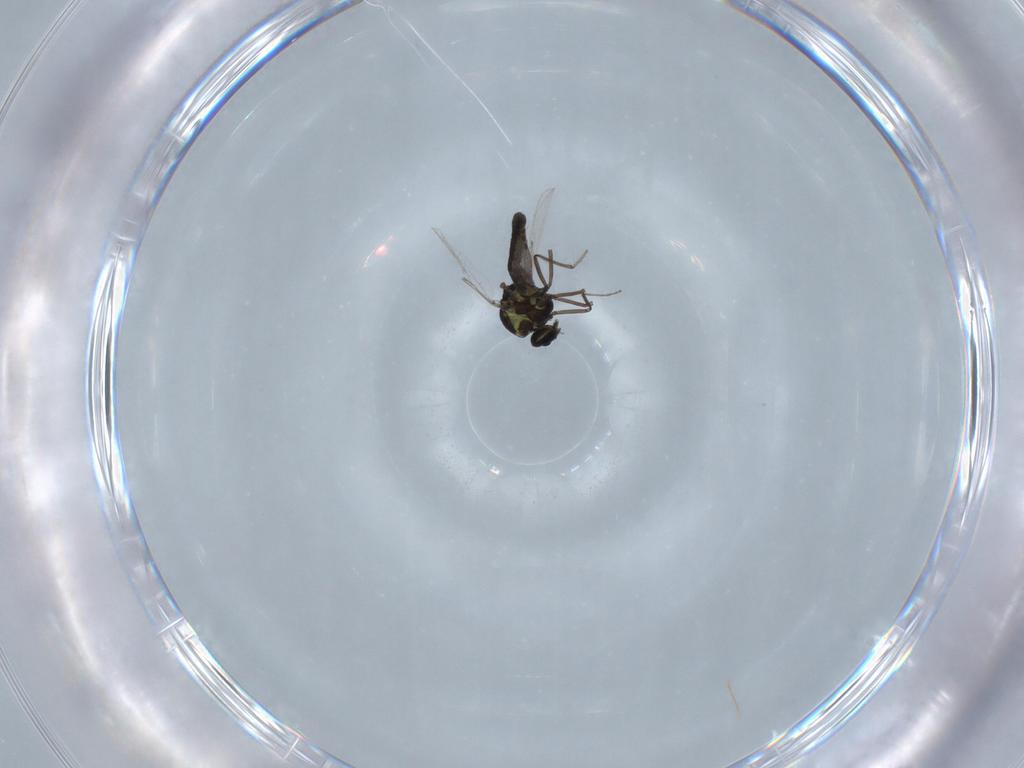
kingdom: Animalia
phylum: Arthropoda
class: Insecta
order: Diptera
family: Ceratopogonidae
